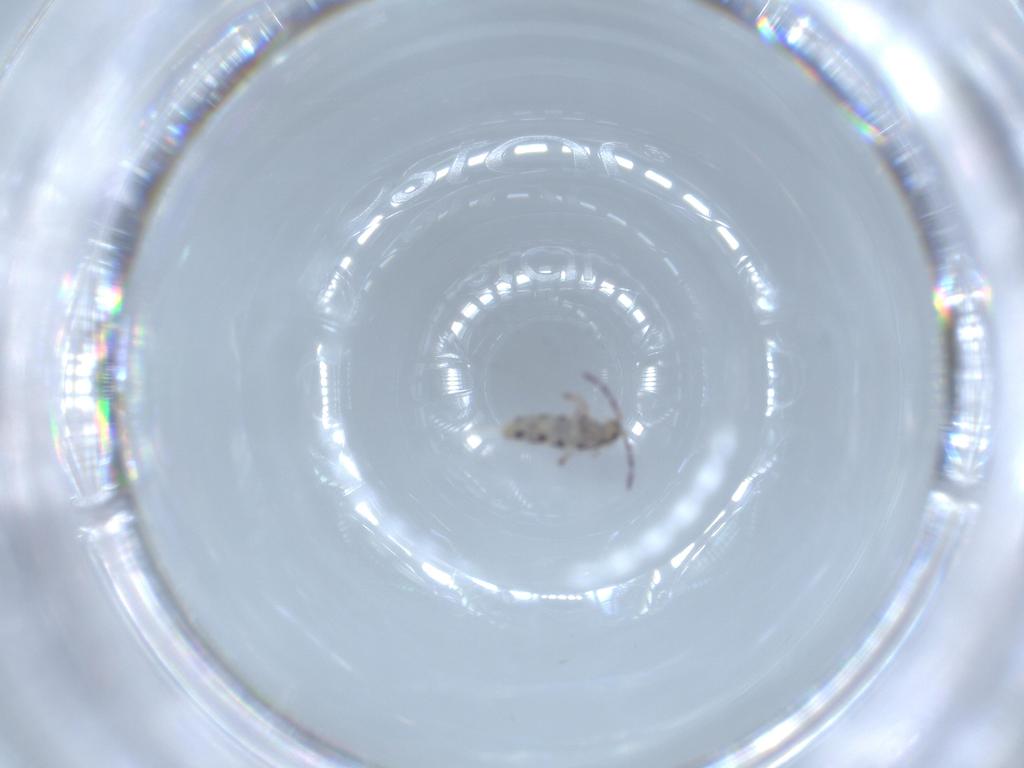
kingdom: Animalia
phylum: Arthropoda
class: Collembola
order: Entomobryomorpha
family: Entomobryidae
